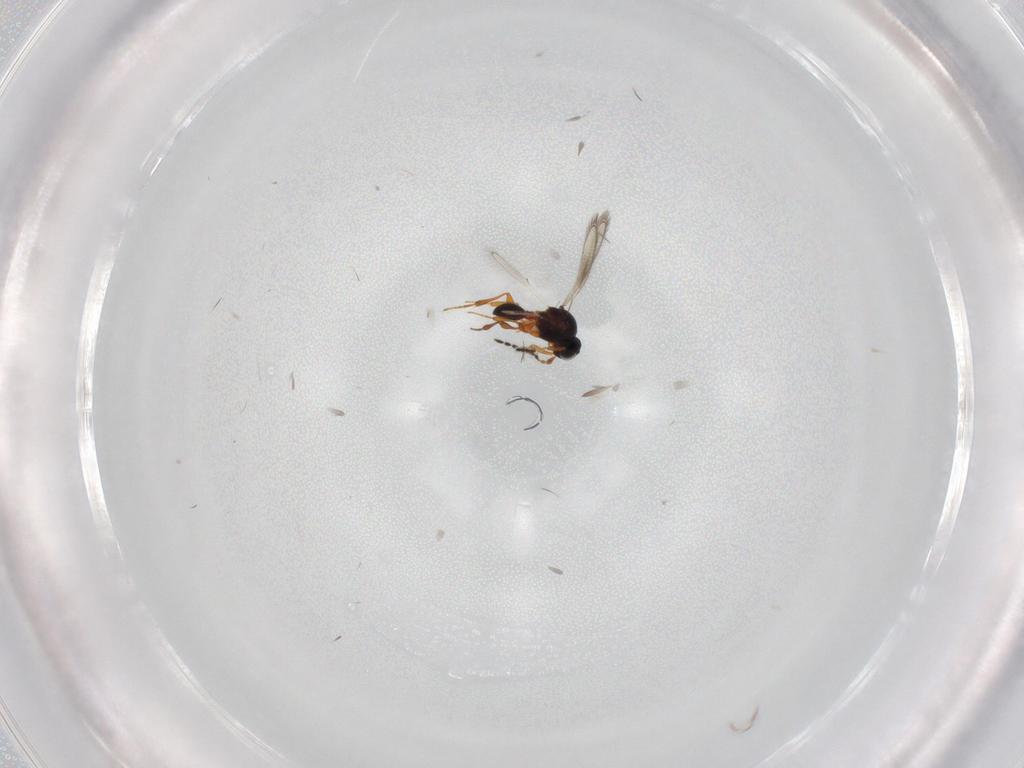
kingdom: Animalia
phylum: Arthropoda
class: Insecta
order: Hymenoptera
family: Platygastridae
